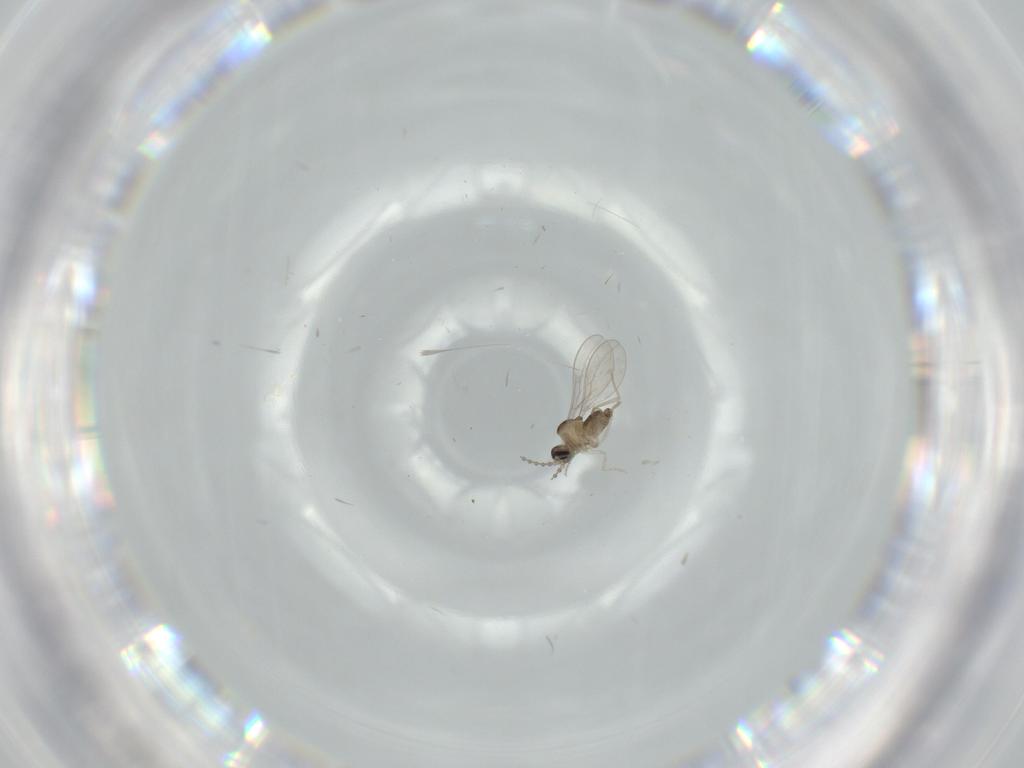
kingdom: Animalia
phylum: Arthropoda
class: Insecta
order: Diptera
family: Cecidomyiidae
